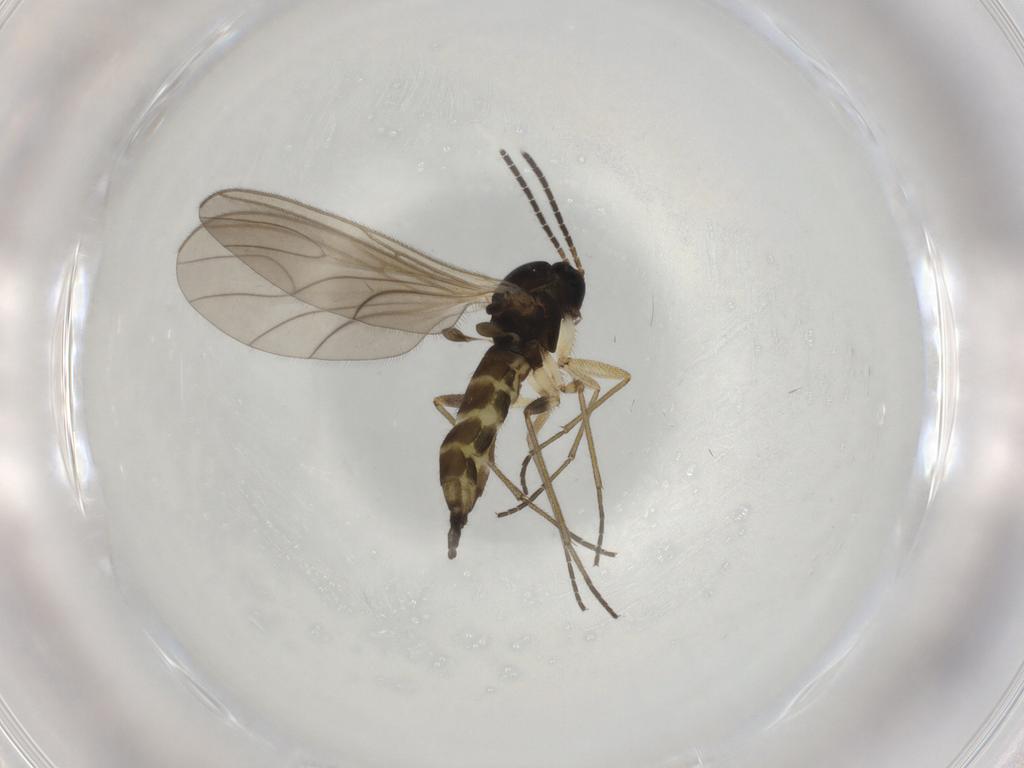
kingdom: Animalia
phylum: Arthropoda
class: Insecta
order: Diptera
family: Sciaridae
